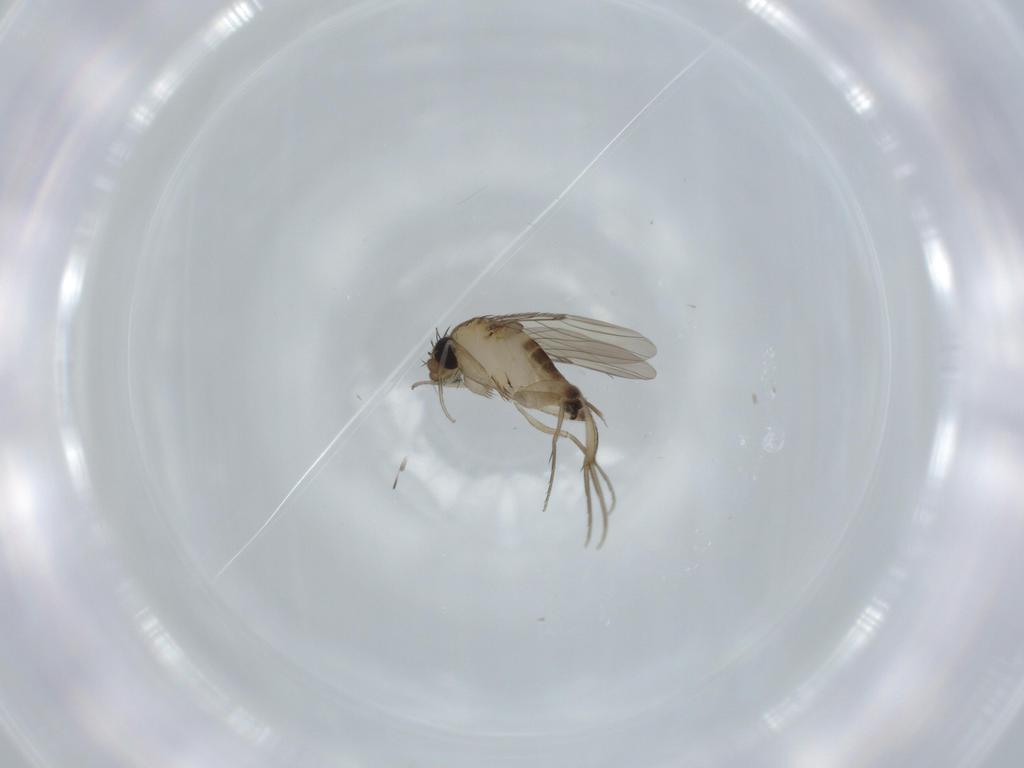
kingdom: Animalia
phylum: Arthropoda
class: Insecta
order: Diptera
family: Phoridae
